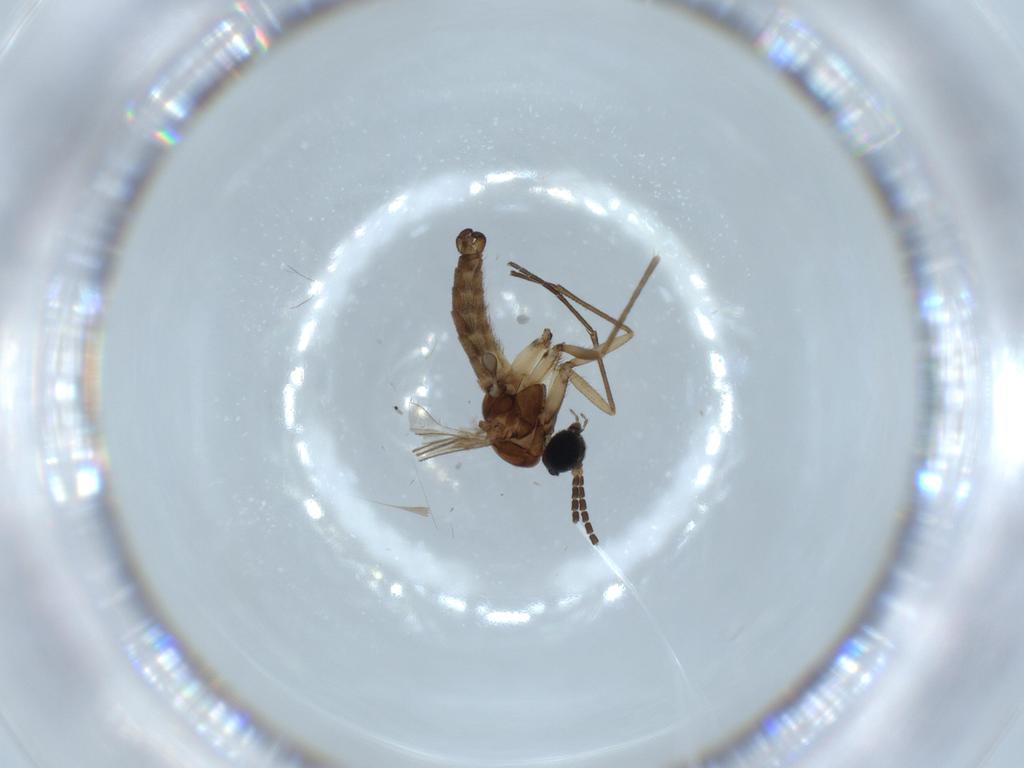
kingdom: Animalia
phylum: Arthropoda
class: Insecta
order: Diptera
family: Sciaridae
